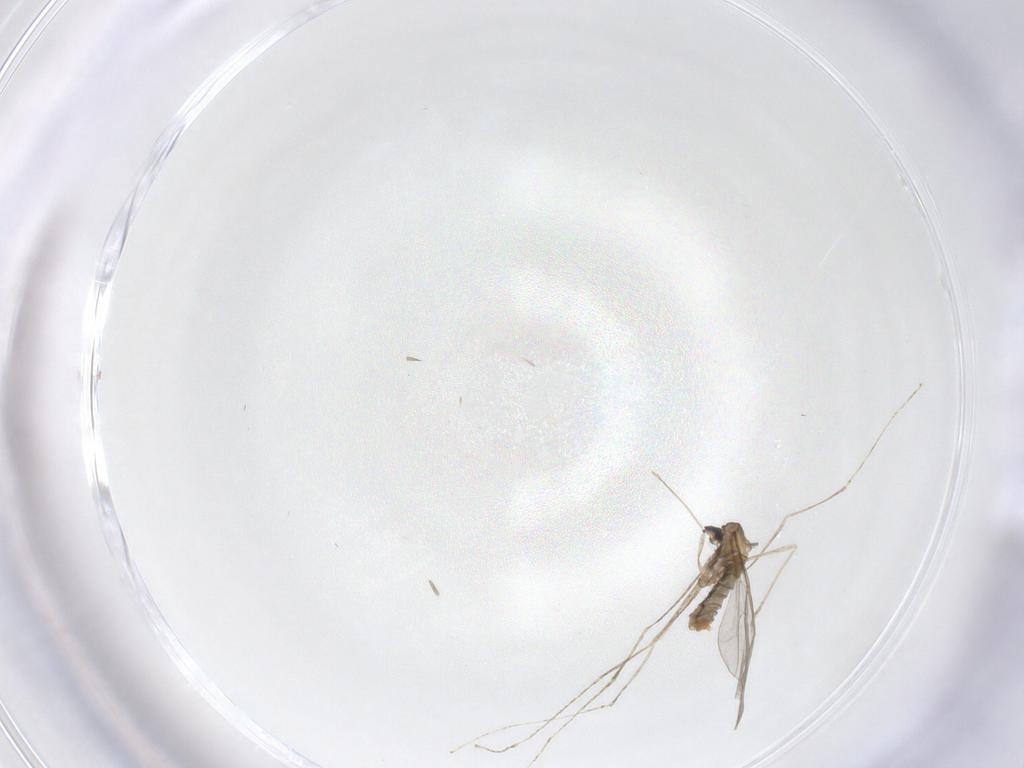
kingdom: Animalia
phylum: Arthropoda
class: Insecta
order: Diptera
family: Cecidomyiidae
